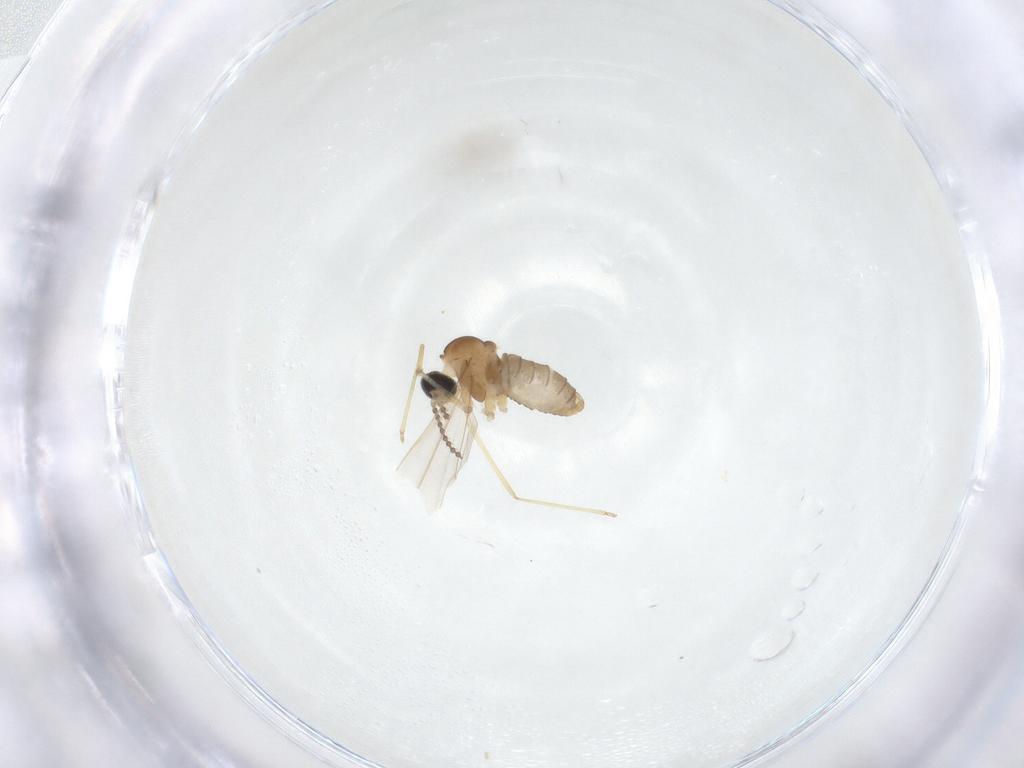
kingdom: Animalia
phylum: Arthropoda
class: Insecta
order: Diptera
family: Cecidomyiidae
